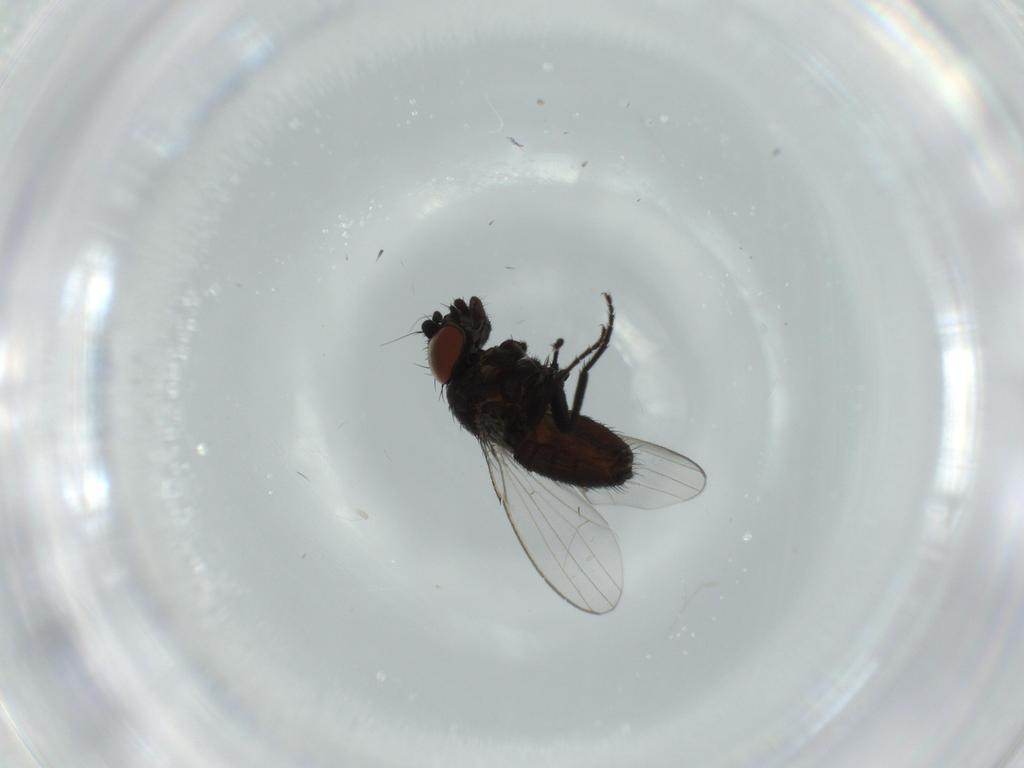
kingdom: Animalia
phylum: Arthropoda
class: Insecta
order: Diptera
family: Milichiidae
